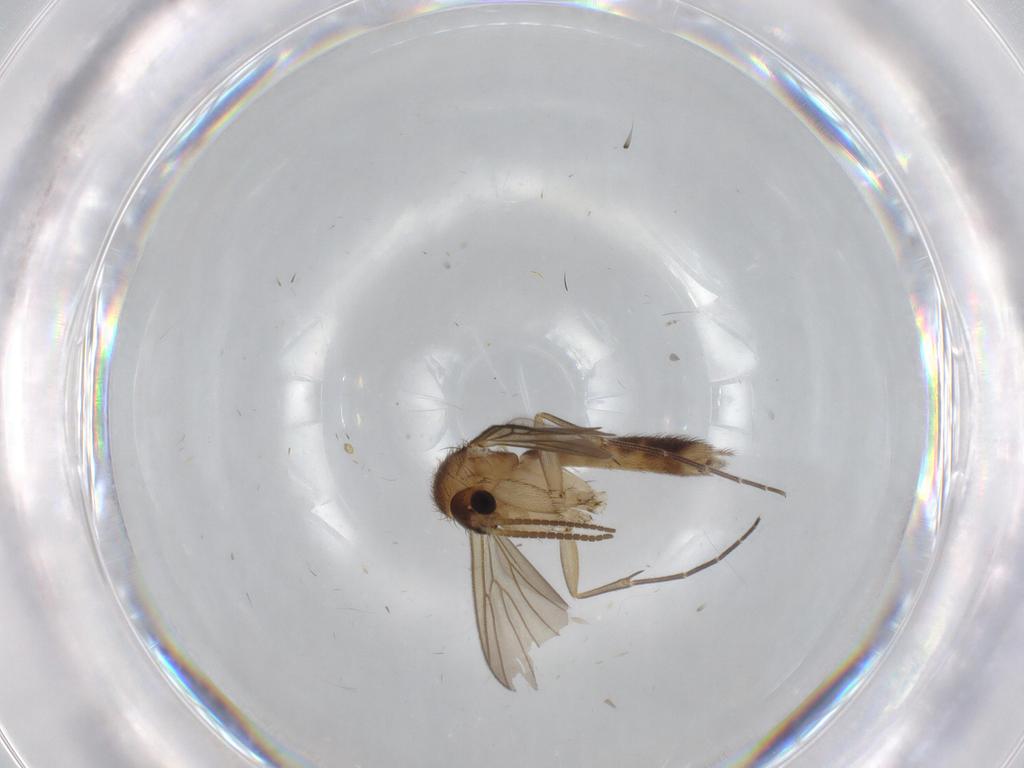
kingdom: Animalia
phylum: Arthropoda
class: Insecta
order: Diptera
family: Mycetophilidae
